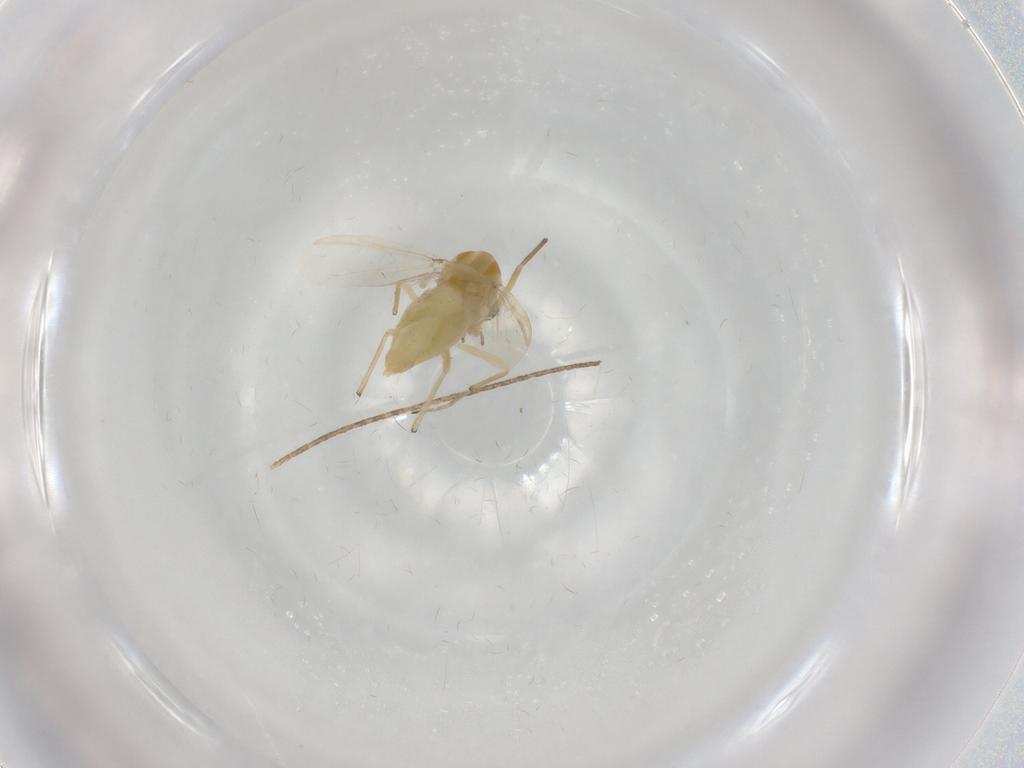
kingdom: Animalia
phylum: Arthropoda
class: Insecta
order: Diptera
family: Chironomidae
